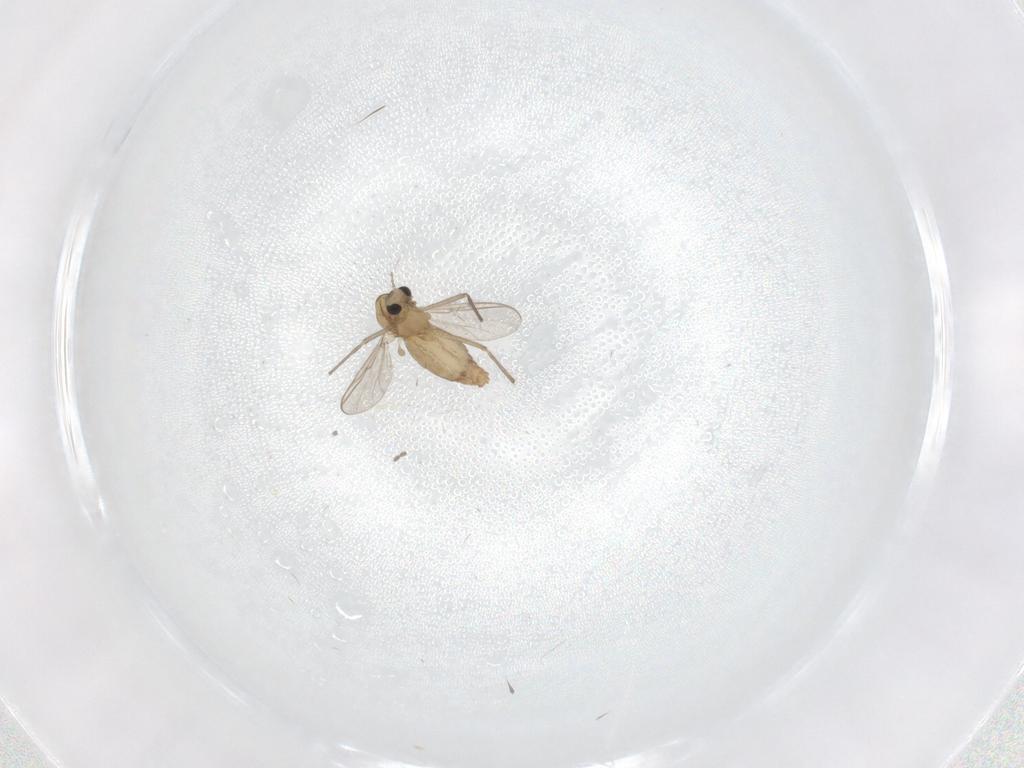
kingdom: Animalia
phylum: Arthropoda
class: Insecta
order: Diptera
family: Chironomidae
